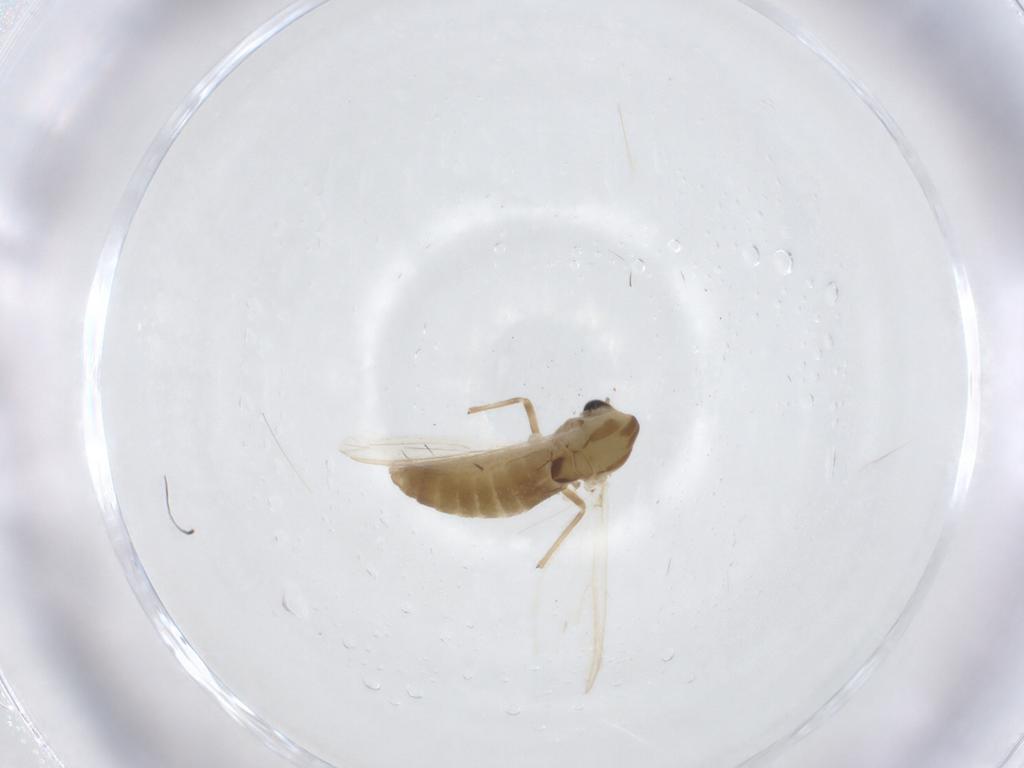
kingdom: Animalia
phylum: Arthropoda
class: Insecta
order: Diptera
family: Chironomidae
